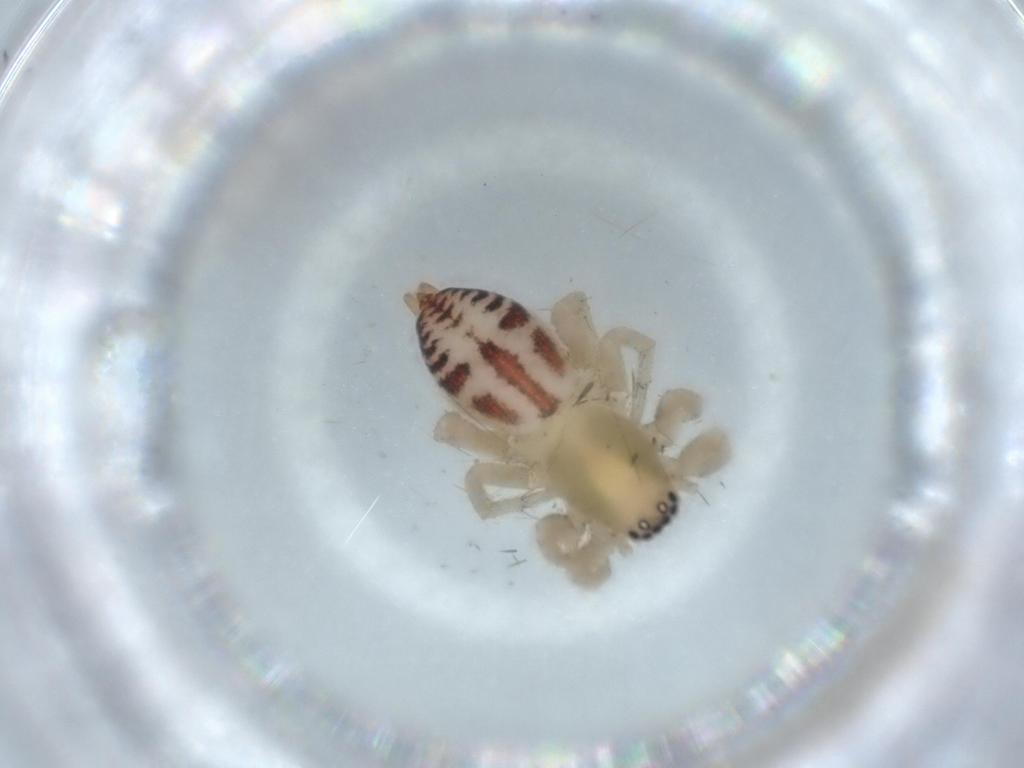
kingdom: Animalia
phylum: Arthropoda
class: Arachnida
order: Araneae
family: Clubionidae
